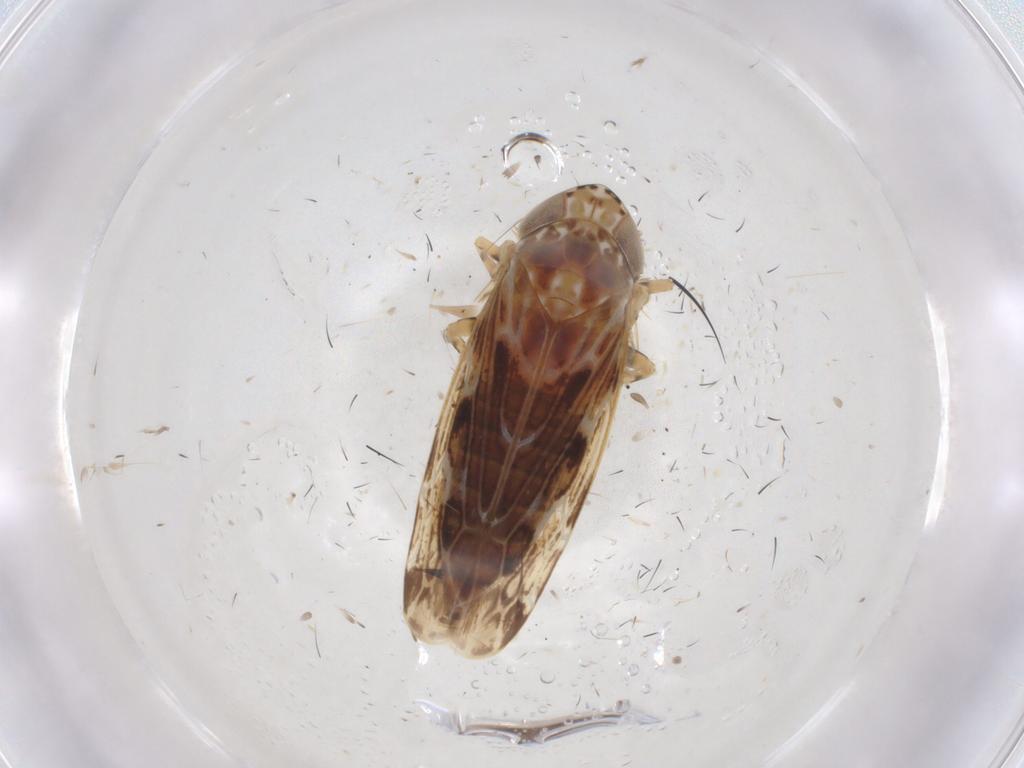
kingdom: Animalia
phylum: Arthropoda
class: Insecta
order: Hemiptera
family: Cicadellidae
